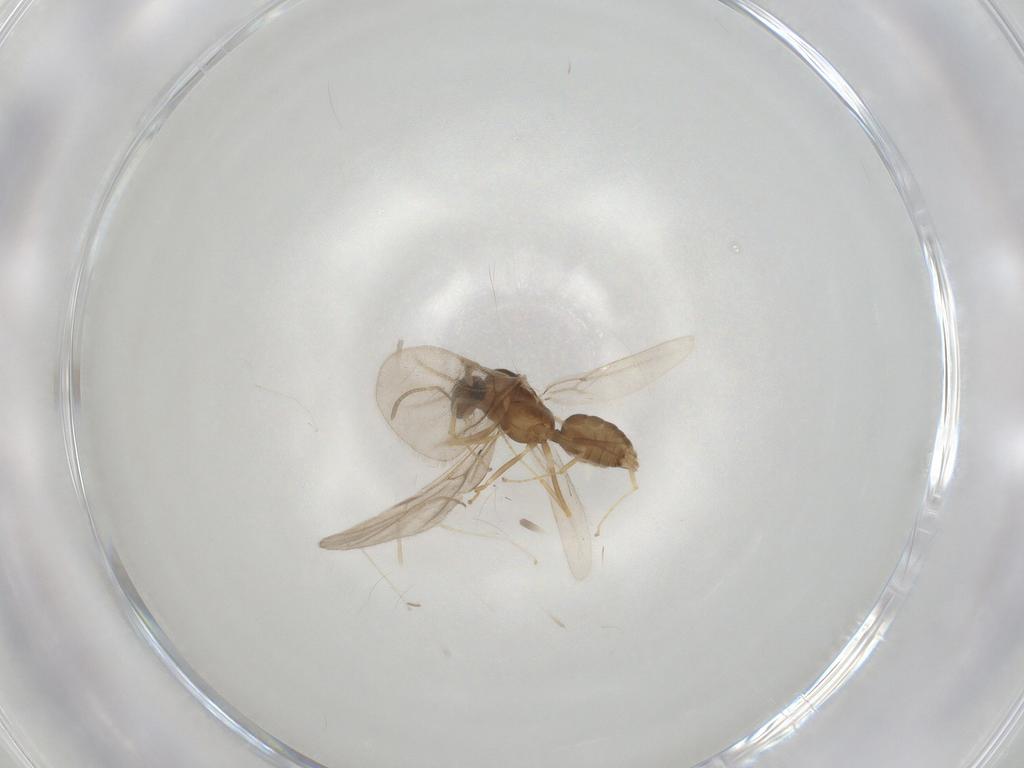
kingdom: Animalia
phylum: Arthropoda
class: Insecta
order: Hymenoptera
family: Formicidae
